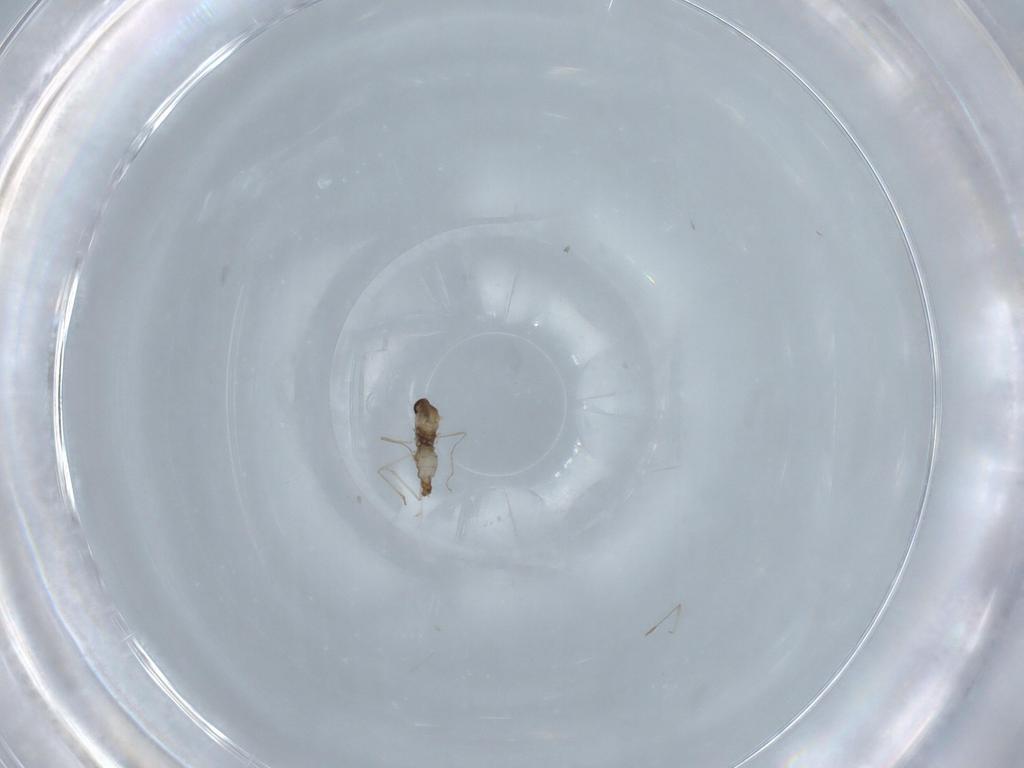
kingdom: Animalia
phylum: Arthropoda
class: Insecta
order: Diptera
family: Cecidomyiidae
